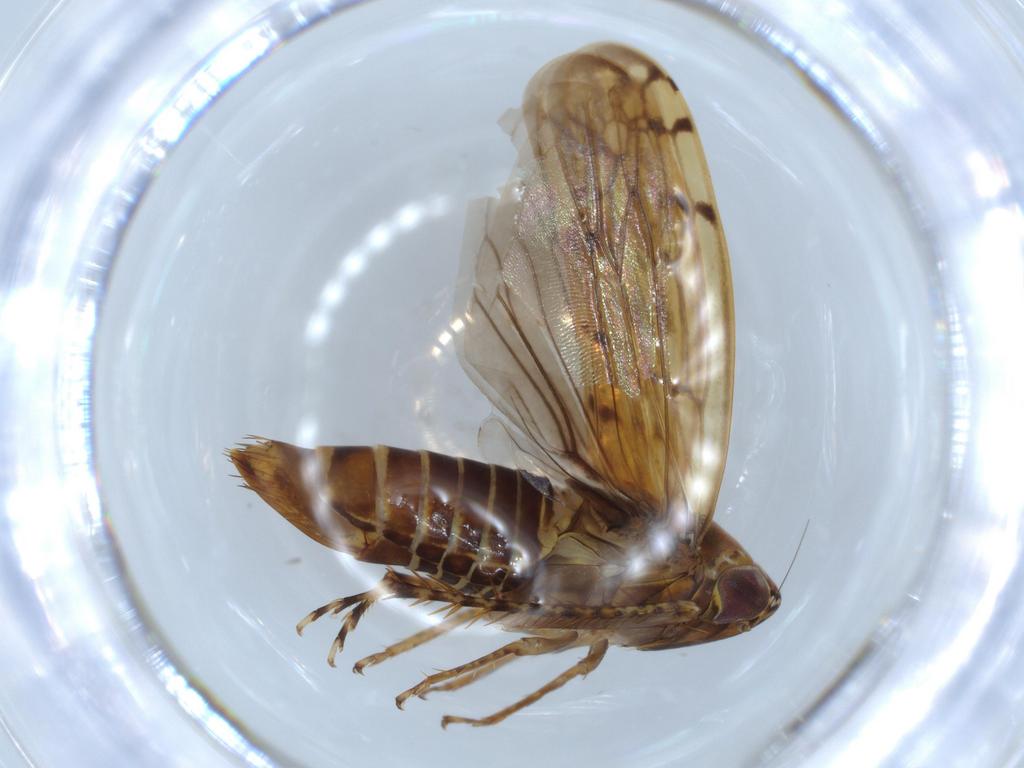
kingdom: Animalia
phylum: Arthropoda
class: Insecta
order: Hemiptera
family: Cicadellidae
